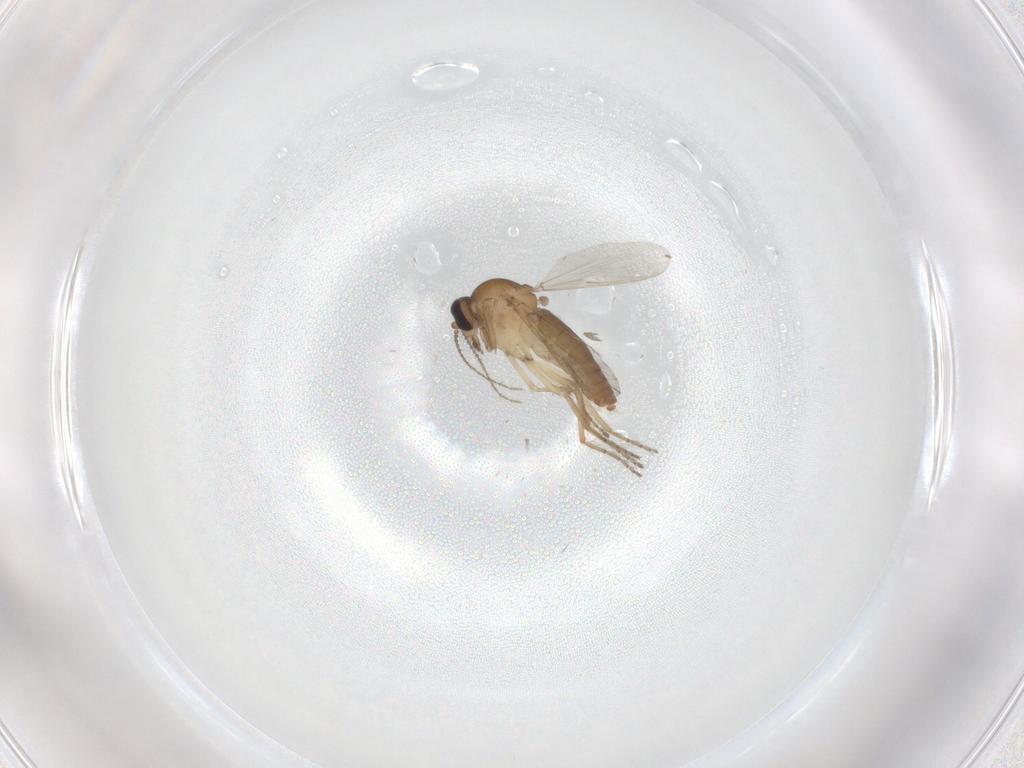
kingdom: Animalia
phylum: Arthropoda
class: Insecta
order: Diptera
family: Ceratopogonidae
